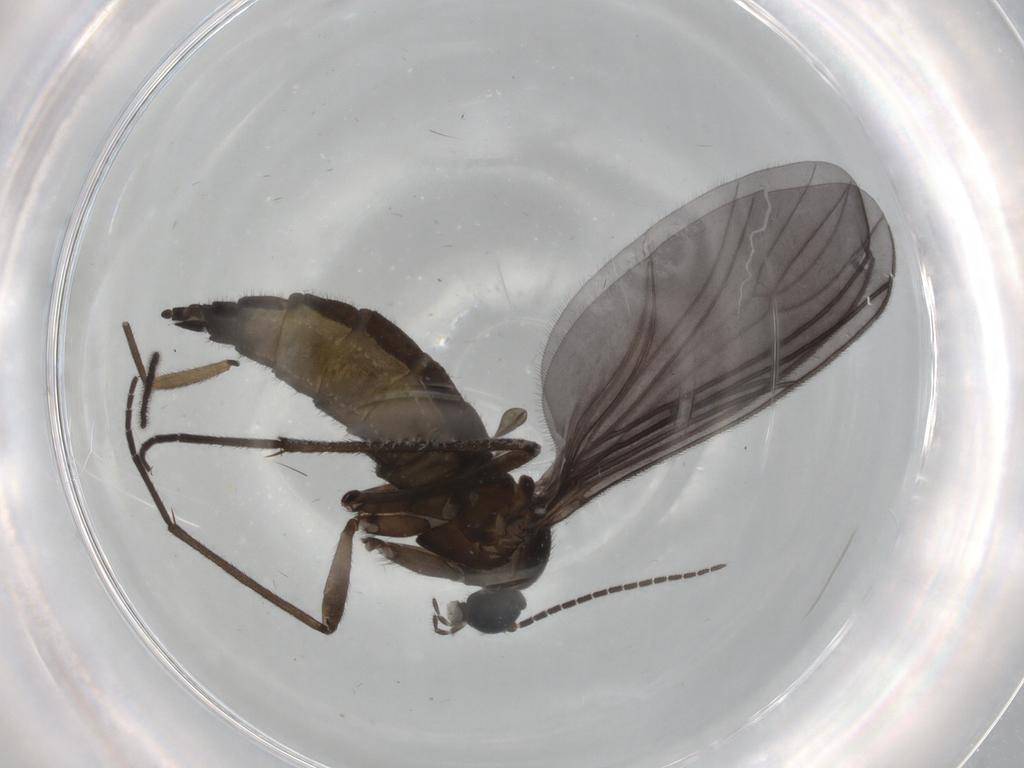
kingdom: Animalia
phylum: Arthropoda
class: Insecta
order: Diptera
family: Sciaridae
